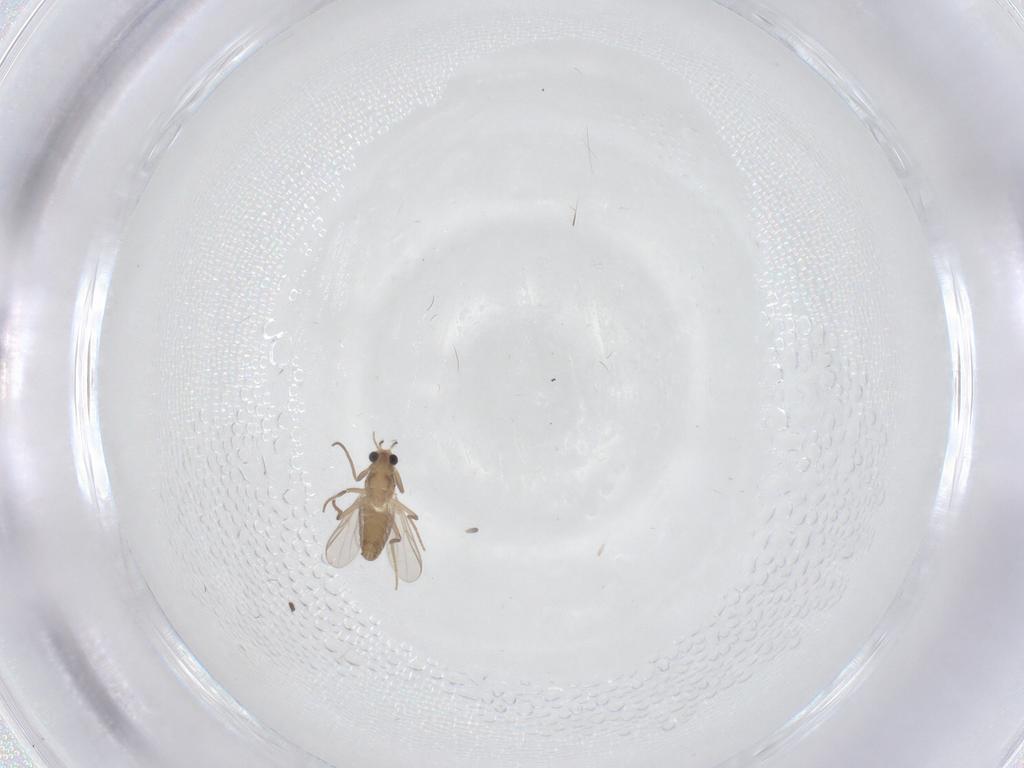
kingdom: Animalia
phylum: Arthropoda
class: Insecta
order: Diptera
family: Chironomidae
